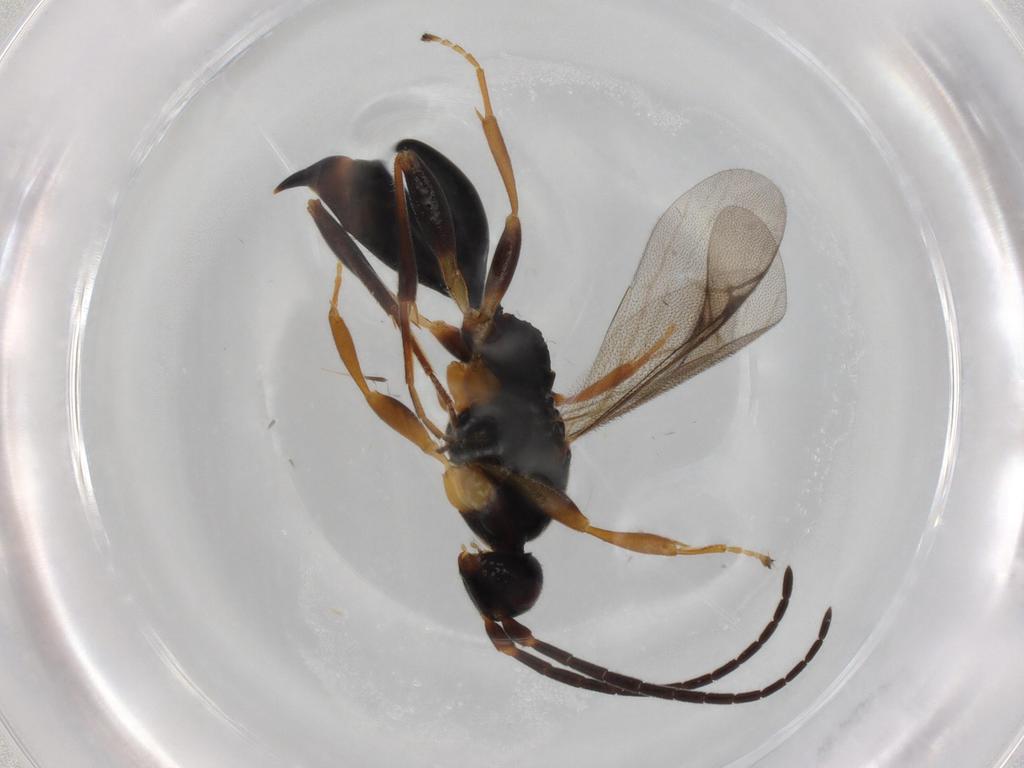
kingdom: Animalia
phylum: Arthropoda
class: Insecta
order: Hymenoptera
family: Proctotrupidae
